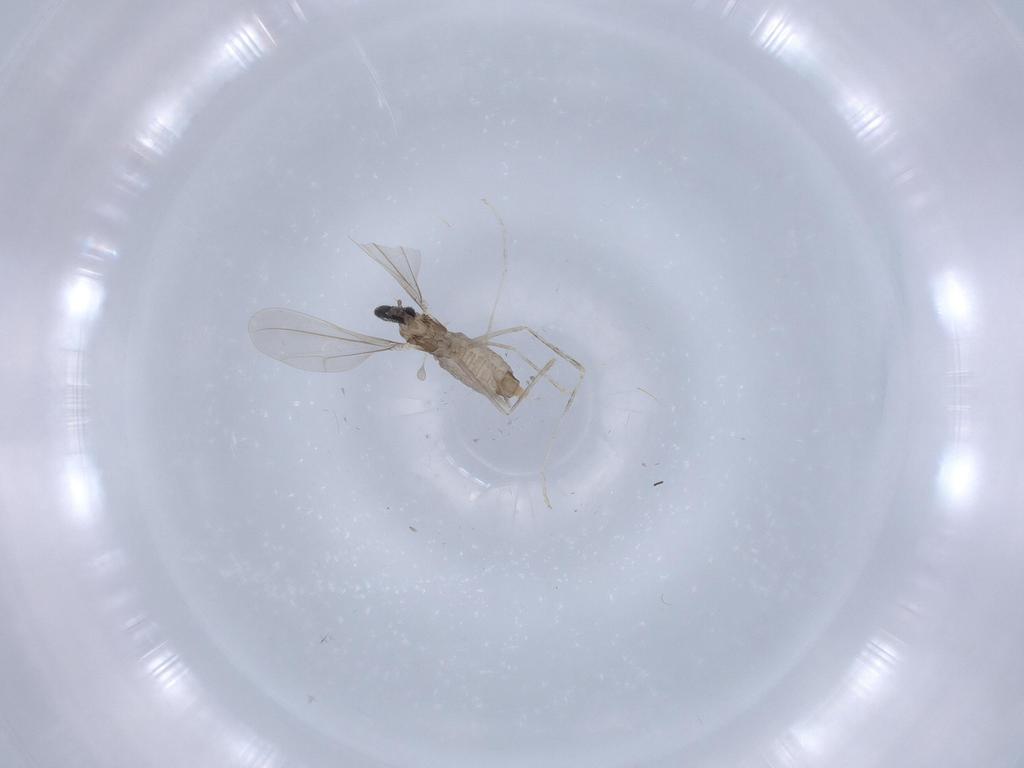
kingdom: Animalia
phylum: Arthropoda
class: Insecta
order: Diptera
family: Cecidomyiidae
